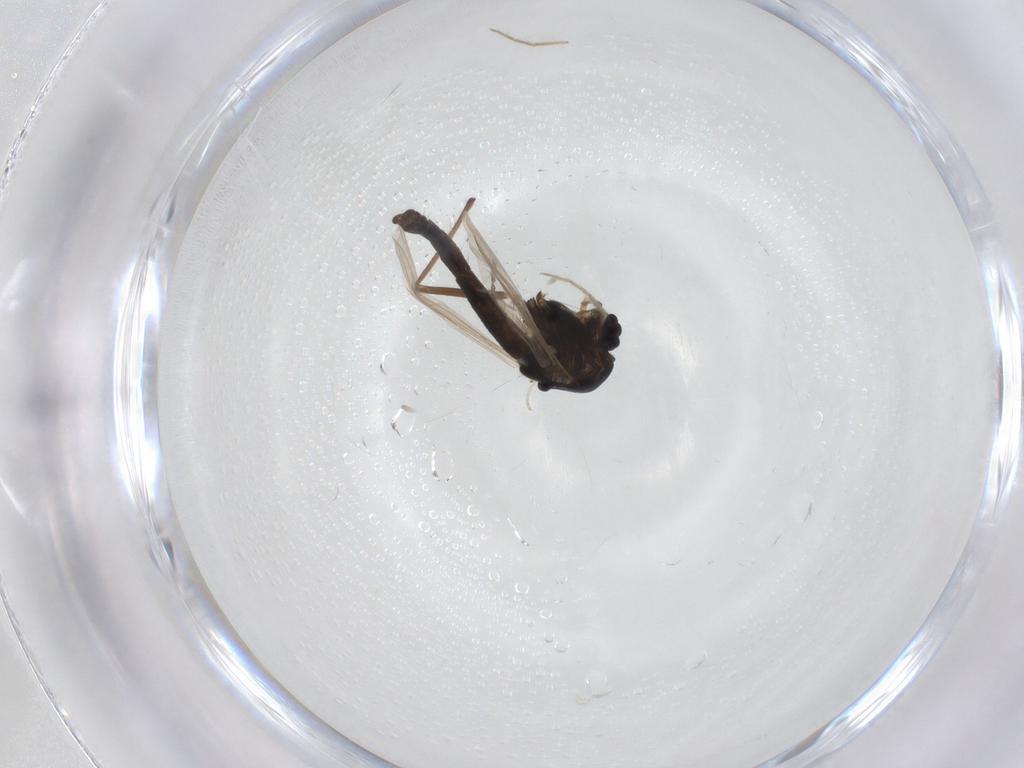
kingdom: Animalia
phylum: Arthropoda
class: Insecta
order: Diptera
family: Chironomidae
